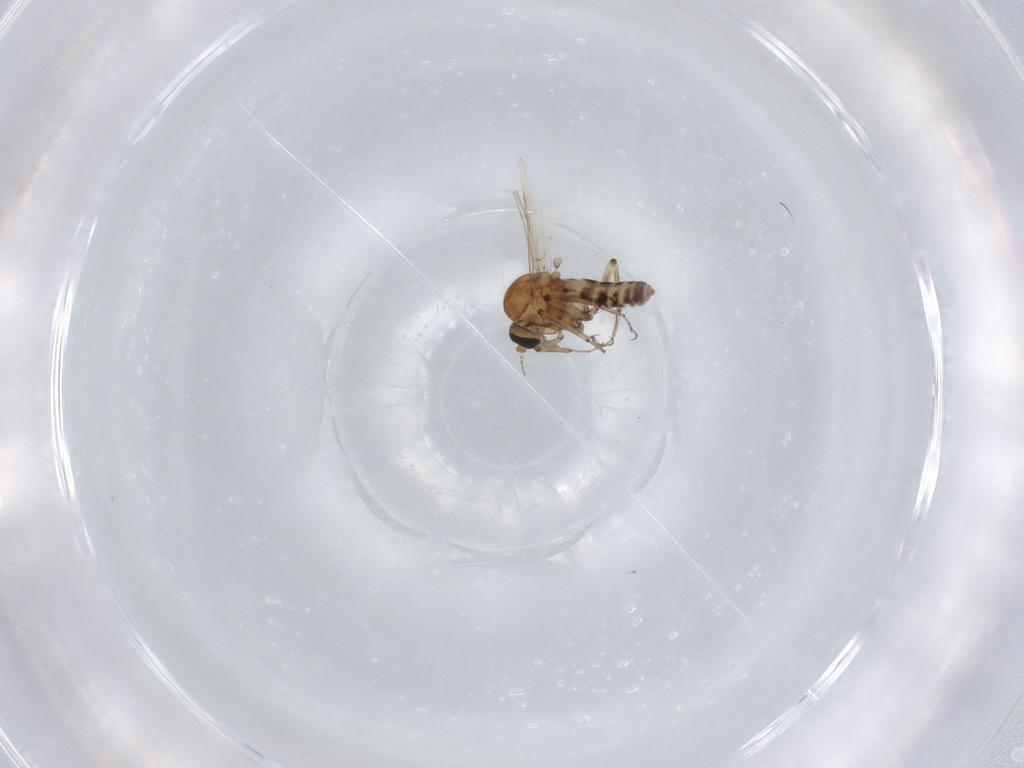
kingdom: Animalia
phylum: Arthropoda
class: Insecta
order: Diptera
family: Ceratopogonidae
